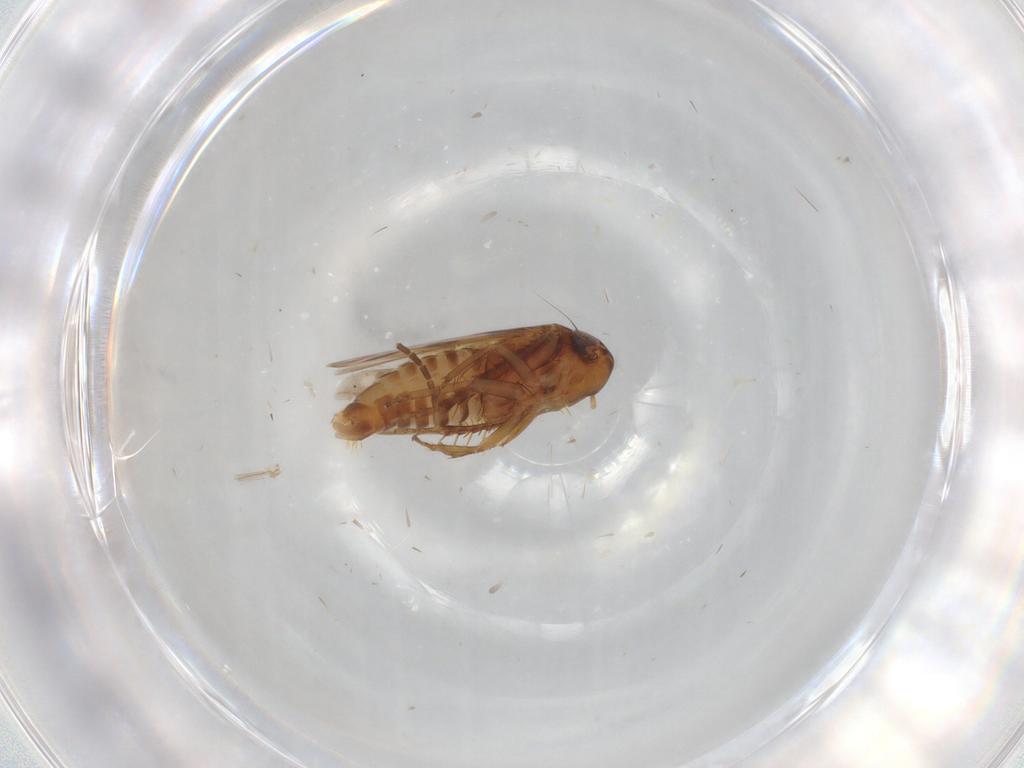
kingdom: Animalia
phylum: Arthropoda
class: Insecta
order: Hemiptera
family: Cicadellidae
